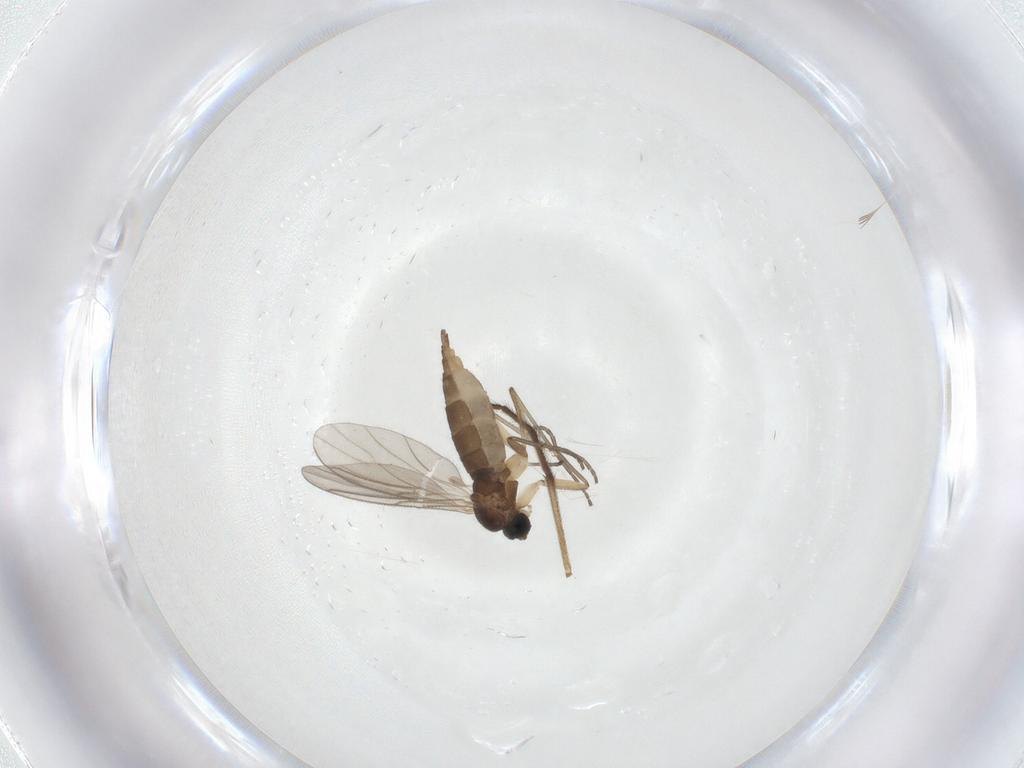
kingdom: Animalia
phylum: Arthropoda
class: Insecta
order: Diptera
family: Sciaridae
